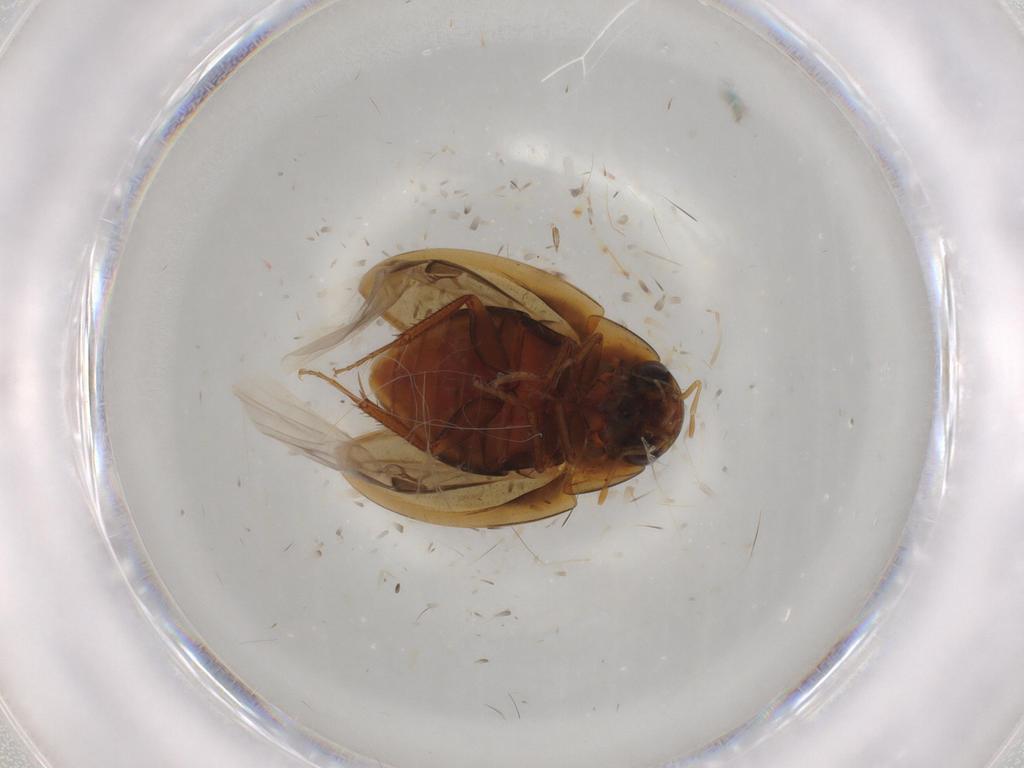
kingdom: Animalia
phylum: Arthropoda
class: Insecta
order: Coleoptera
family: Hydrophilidae
